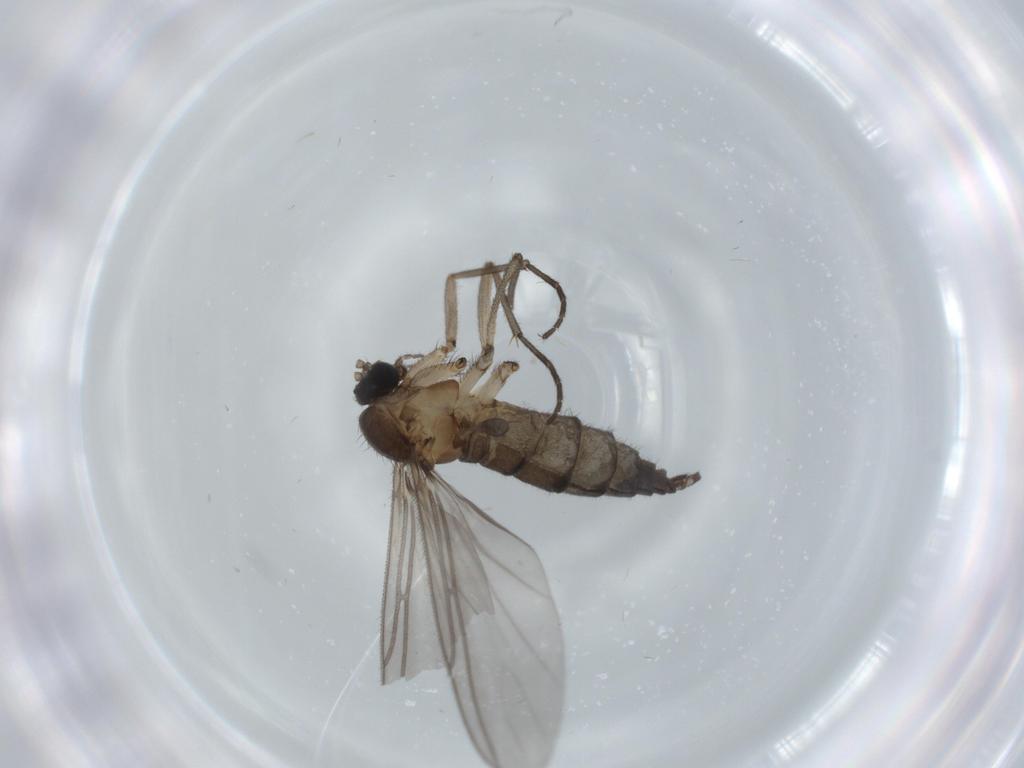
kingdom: Animalia
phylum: Arthropoda
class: Insecta
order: Diptera
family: Sciaridae
